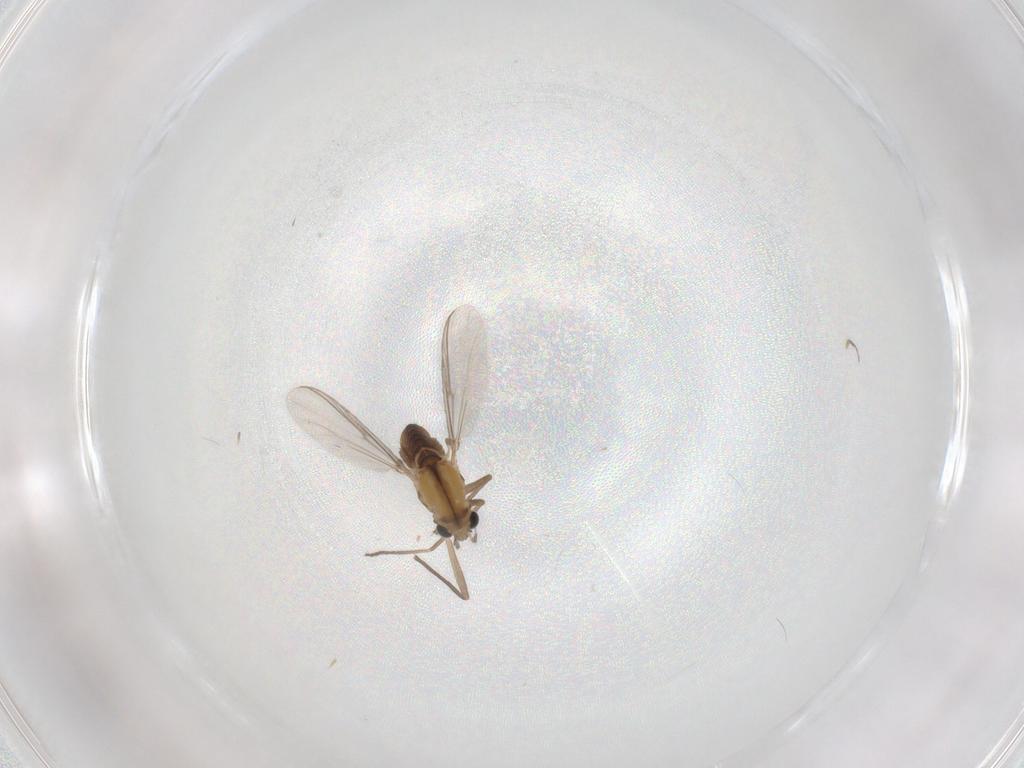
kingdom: Animalia
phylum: Arthropoda
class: Insecta
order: Diptera
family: Chironomidae
